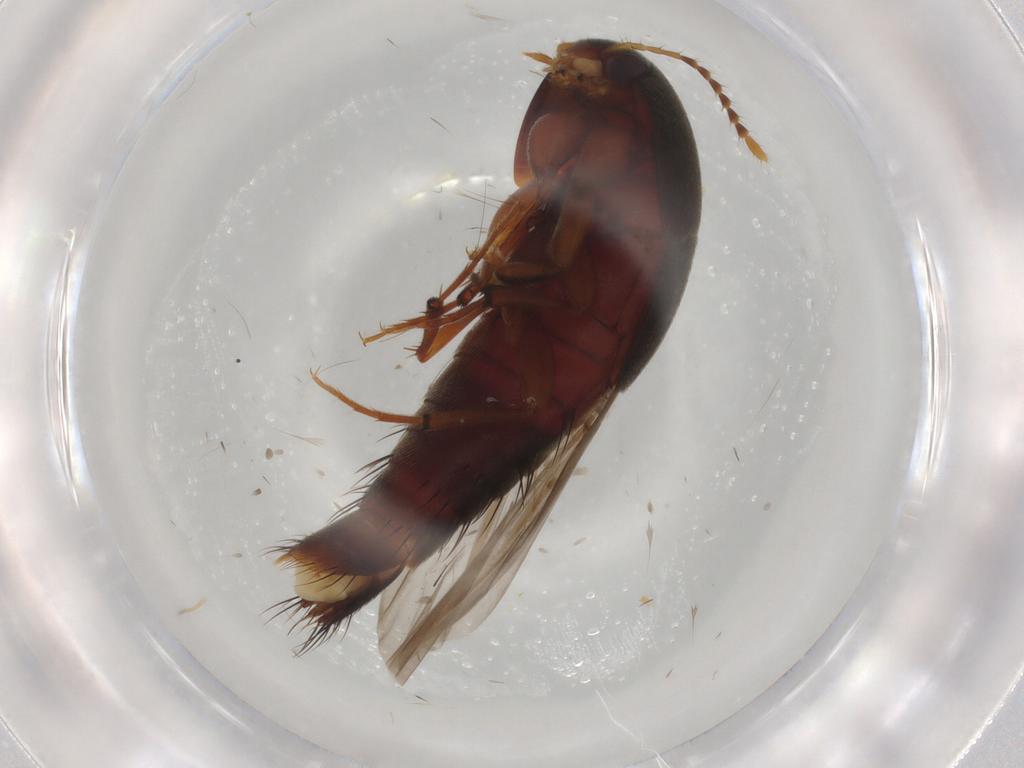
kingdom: Animalia
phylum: Arthropoda
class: Insecta
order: Coleoptera
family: Staphylinidae
